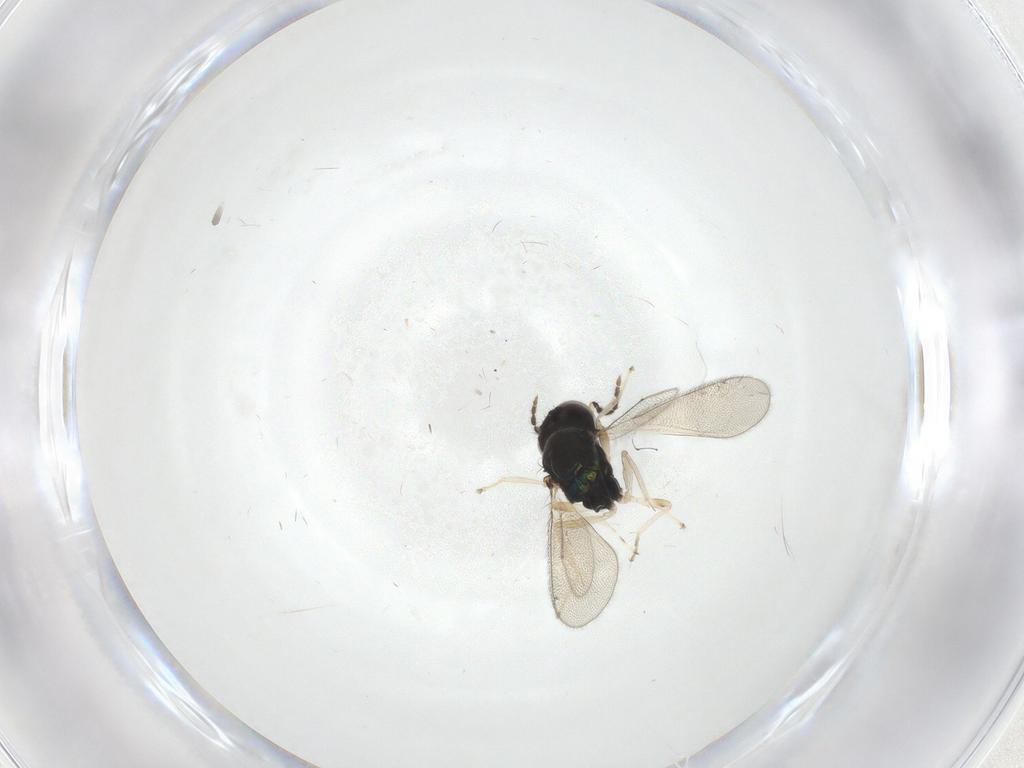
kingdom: Animalia
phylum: Arthropoda
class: Insecta
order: Hymenoptera
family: Eulophidae
